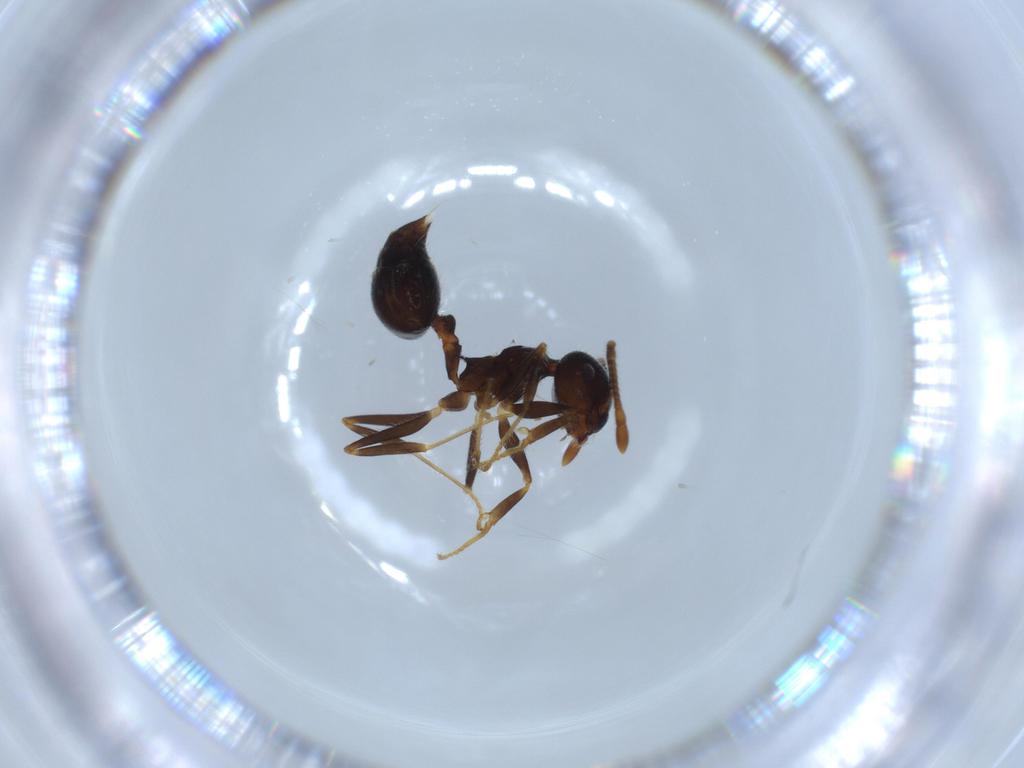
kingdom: Animalia
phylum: Arthropoda
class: Insecta
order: Hymenoptera
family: Formicidae
